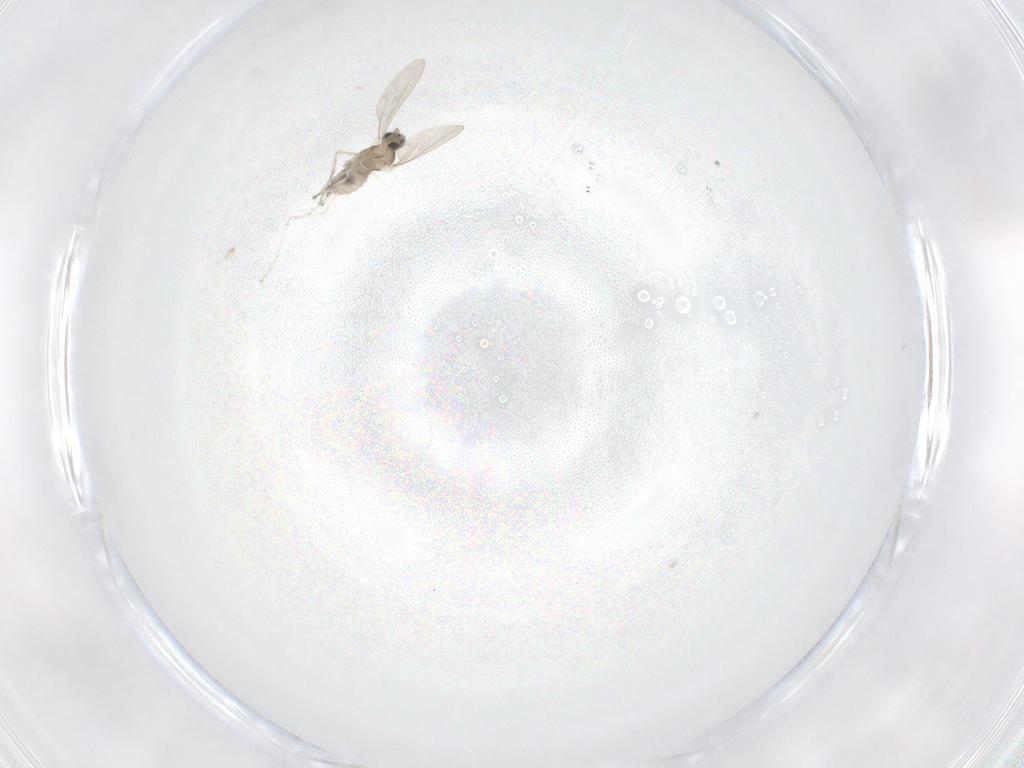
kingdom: Animalia
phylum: Arthropoda
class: Insecta
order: Diptera
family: Cecidomyiidae
